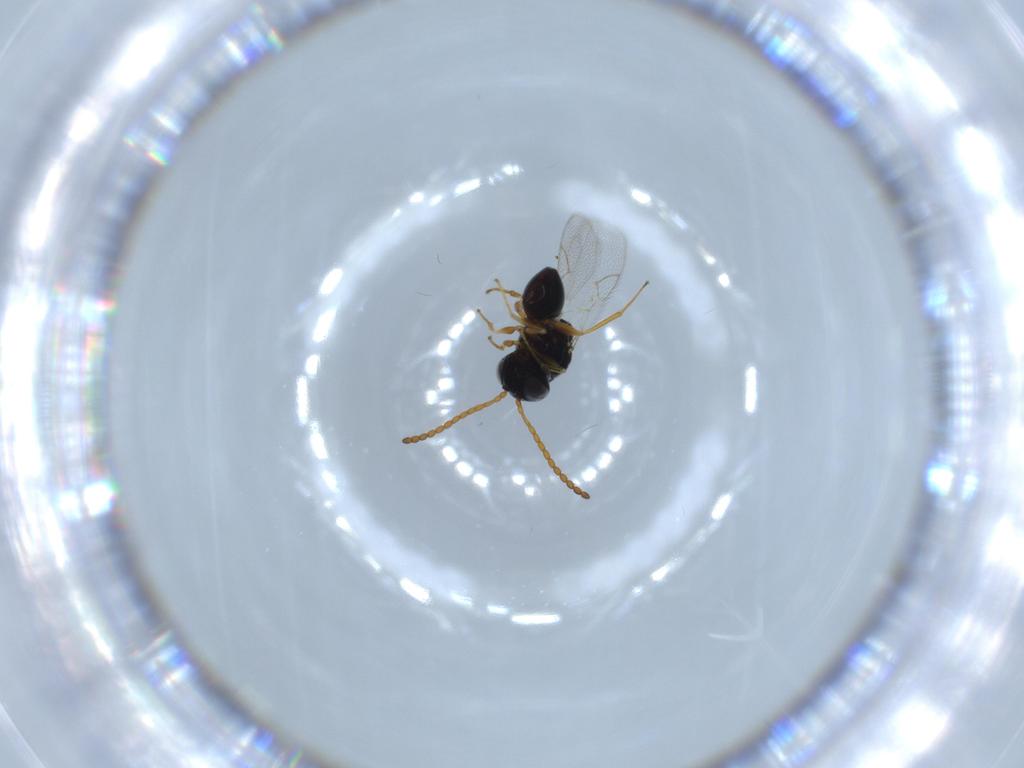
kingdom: Animalia
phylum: Arthropoda
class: Insecta
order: Hymenoptera
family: Figitidae
